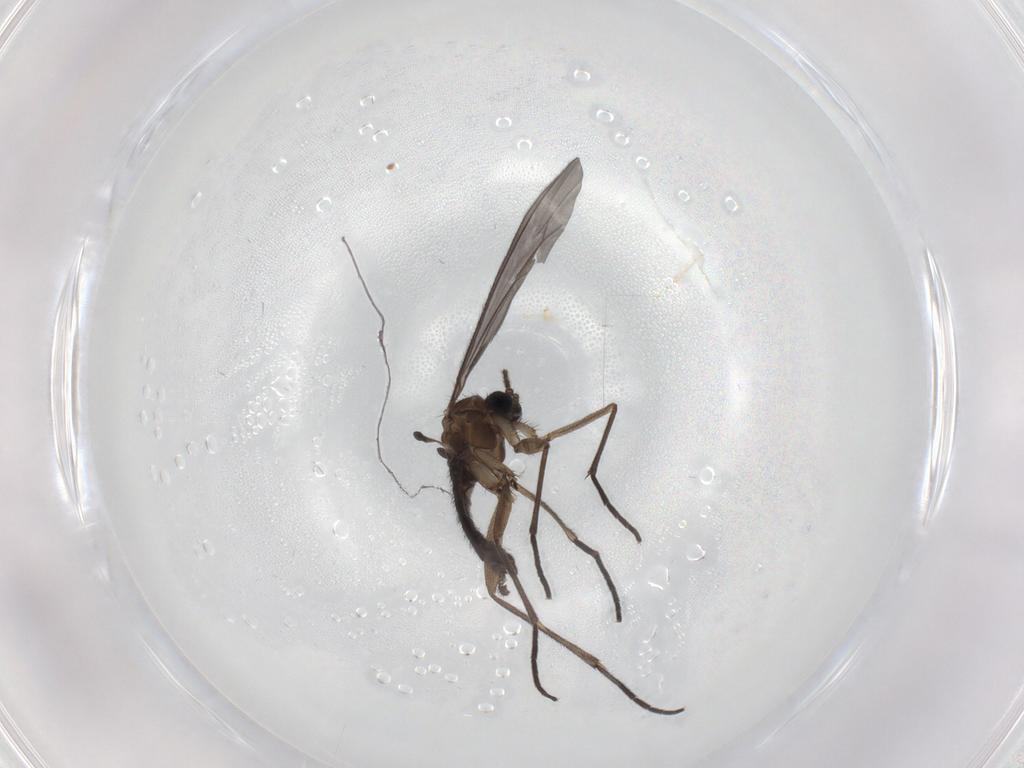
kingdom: Animalia
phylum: Arthropoda
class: Insecta
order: Diptera
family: Sciaridae
